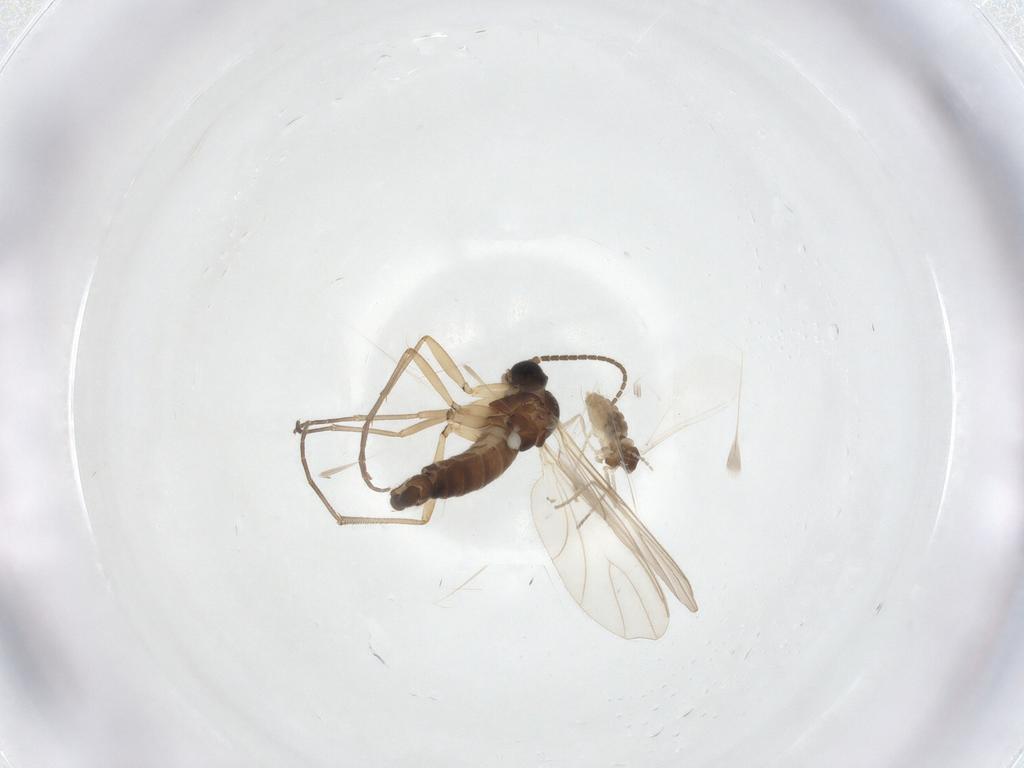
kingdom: Animalia
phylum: Arthropoda
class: Insecta
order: Diptera
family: Cecidomyiidae
